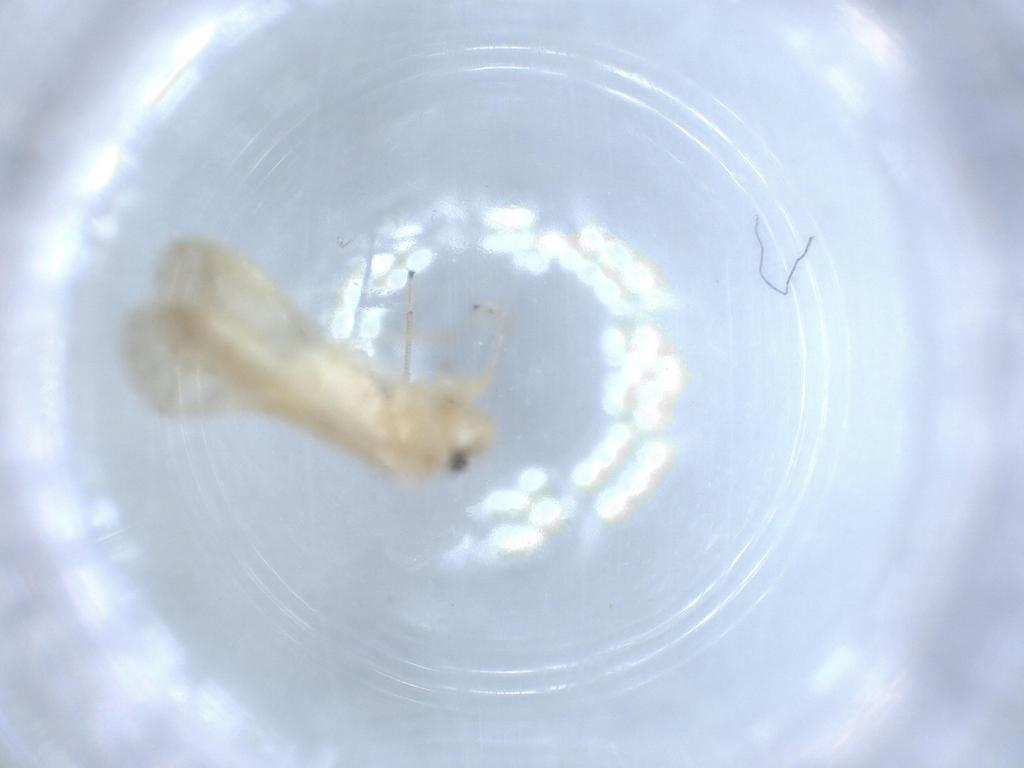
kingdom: Animalia
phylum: Arthropoda
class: Insecta
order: Psocodea
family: Caeciliusidae
